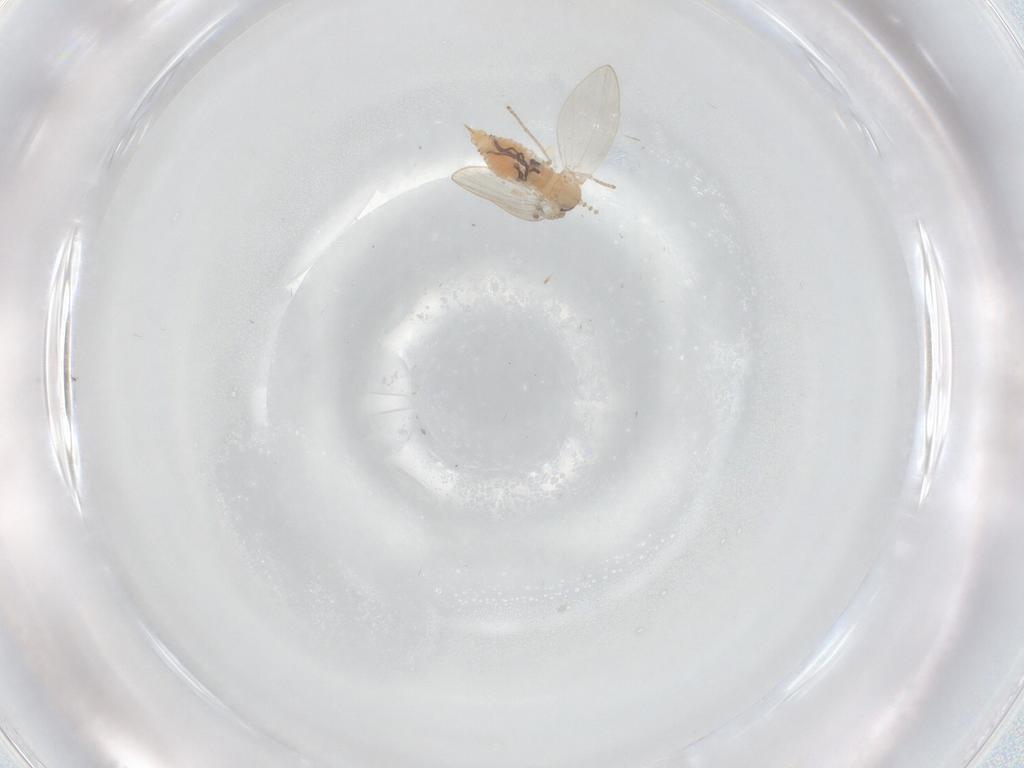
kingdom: Animalia
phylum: Arthropoda
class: Insecta
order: Diptera
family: Psychodidae
